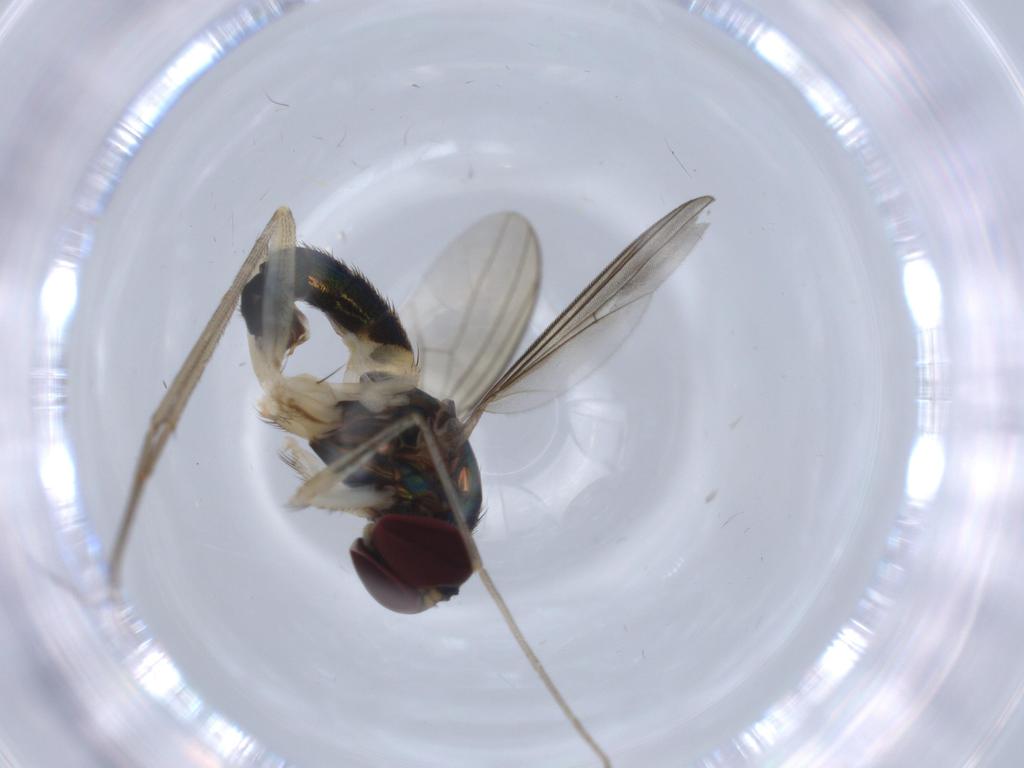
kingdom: Animalia
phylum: Arthropoda
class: Insecta
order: Diptera
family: Dolichopodidae
